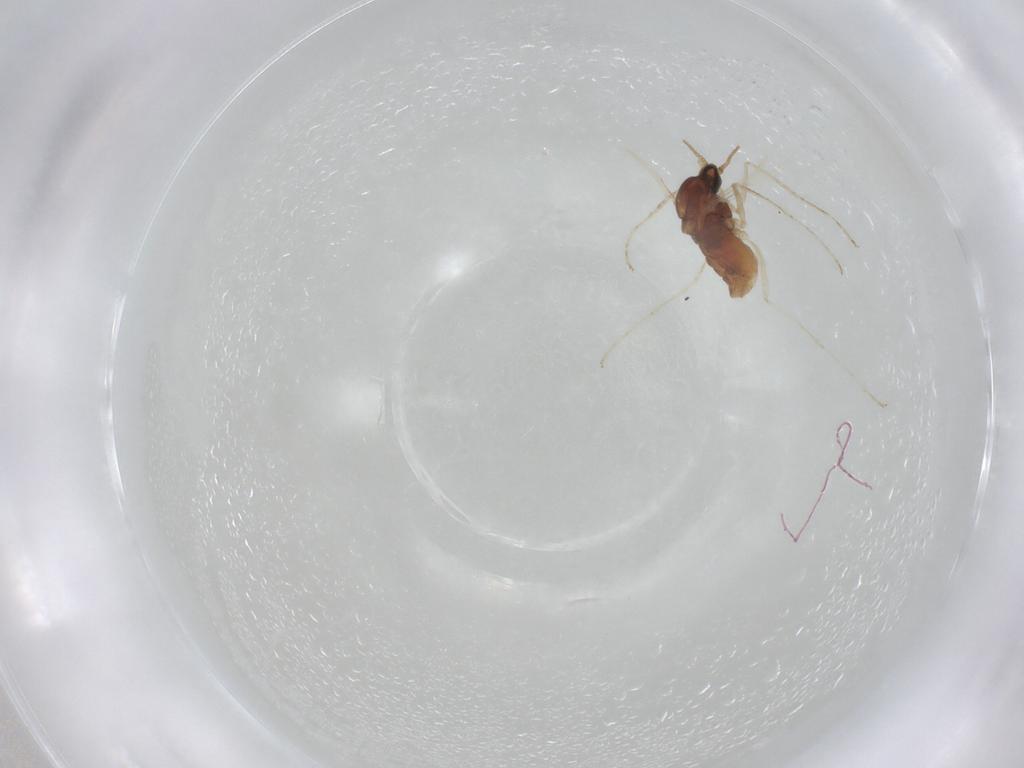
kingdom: Animalia
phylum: Arthropoda
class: Insecta
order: Diptera
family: Cecidomyiidae
